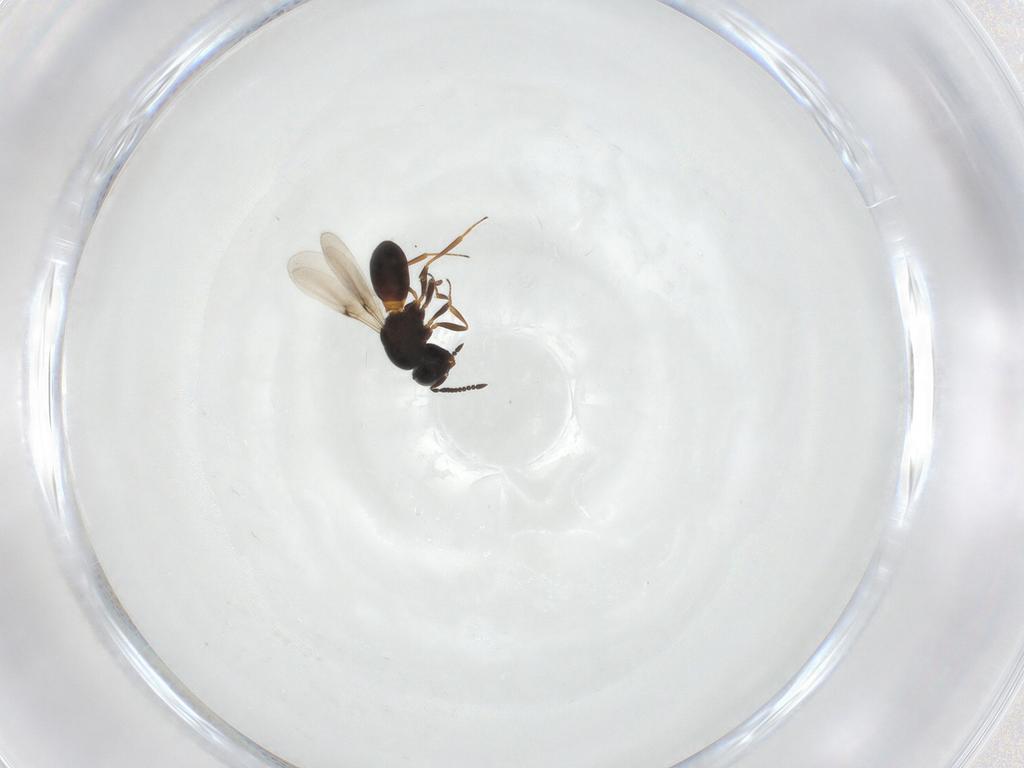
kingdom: Animalia
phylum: Arthropoda
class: Insecta
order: Hymenoptera
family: Scelionidae
